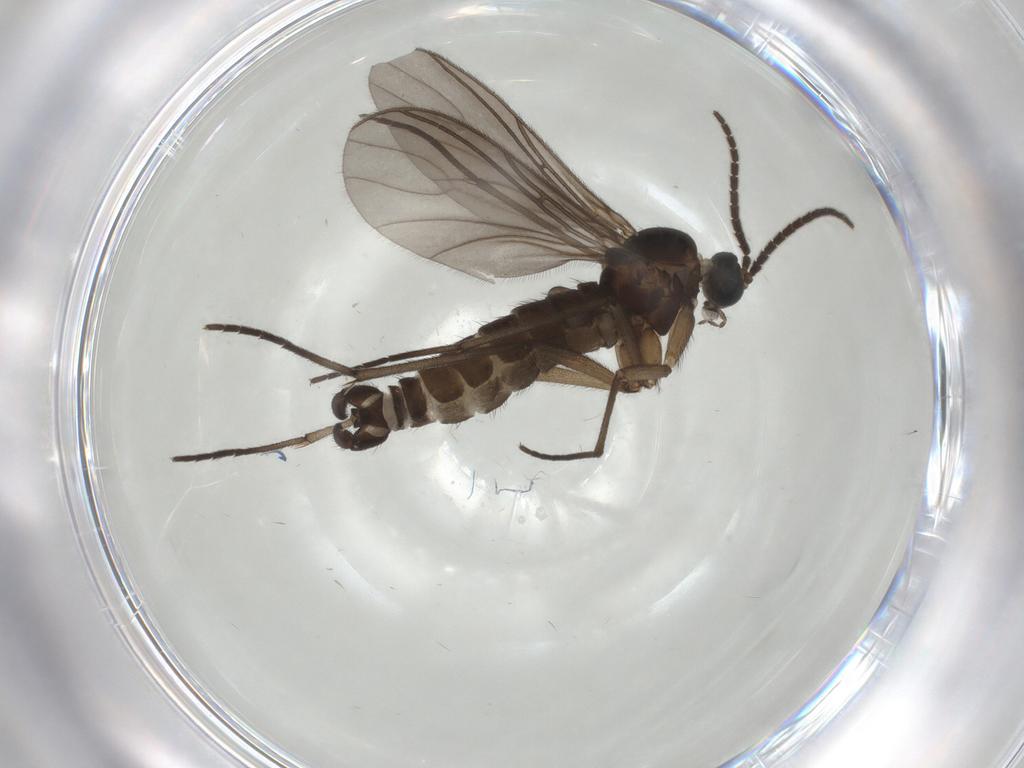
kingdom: Animalia
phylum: Arthropoda
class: Insecta
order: Diptera
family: Sciaridae
